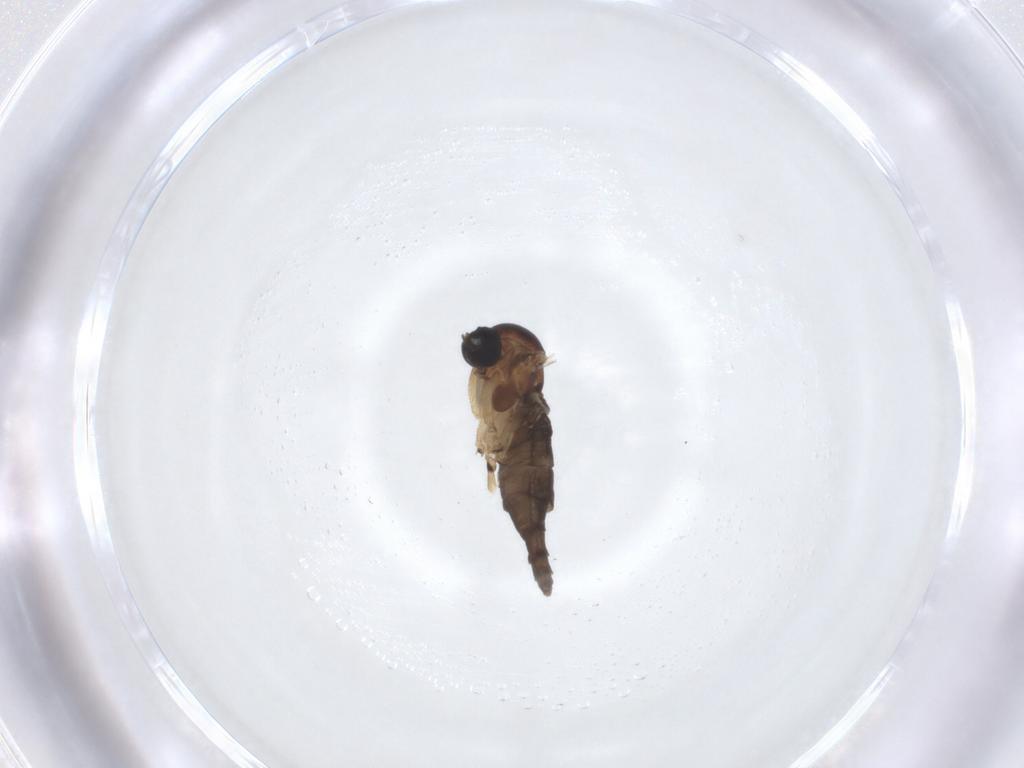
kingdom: Animalia
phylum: Arthropoda
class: Insecta
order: Diptera
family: Sciaridae
